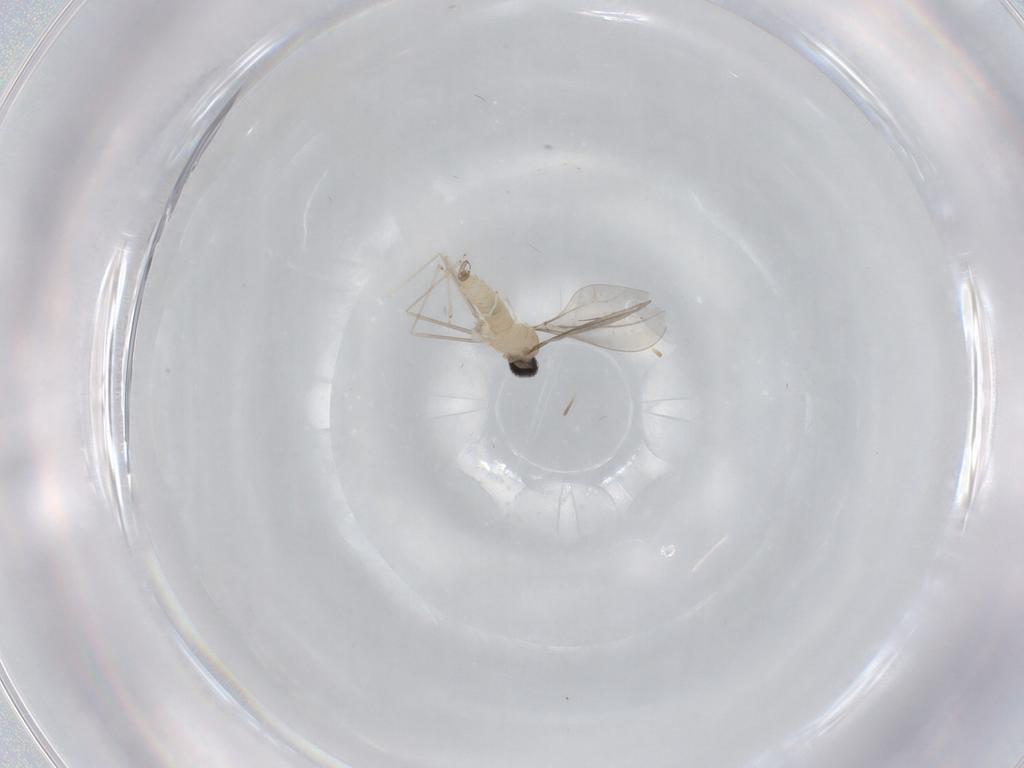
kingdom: Animalia
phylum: Arthropoda
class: Insecta
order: Diptera
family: Cecidomyiidae
